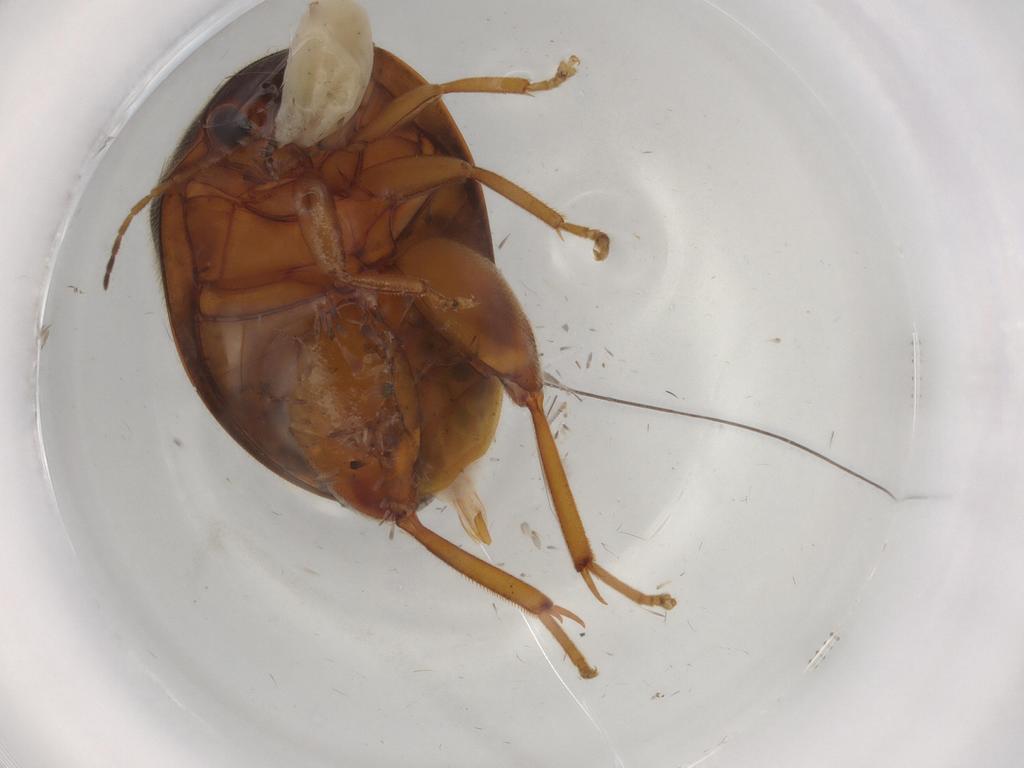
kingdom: Animalia
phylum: Arthropoda
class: Insecta
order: Coleoptera
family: Scirtidae
